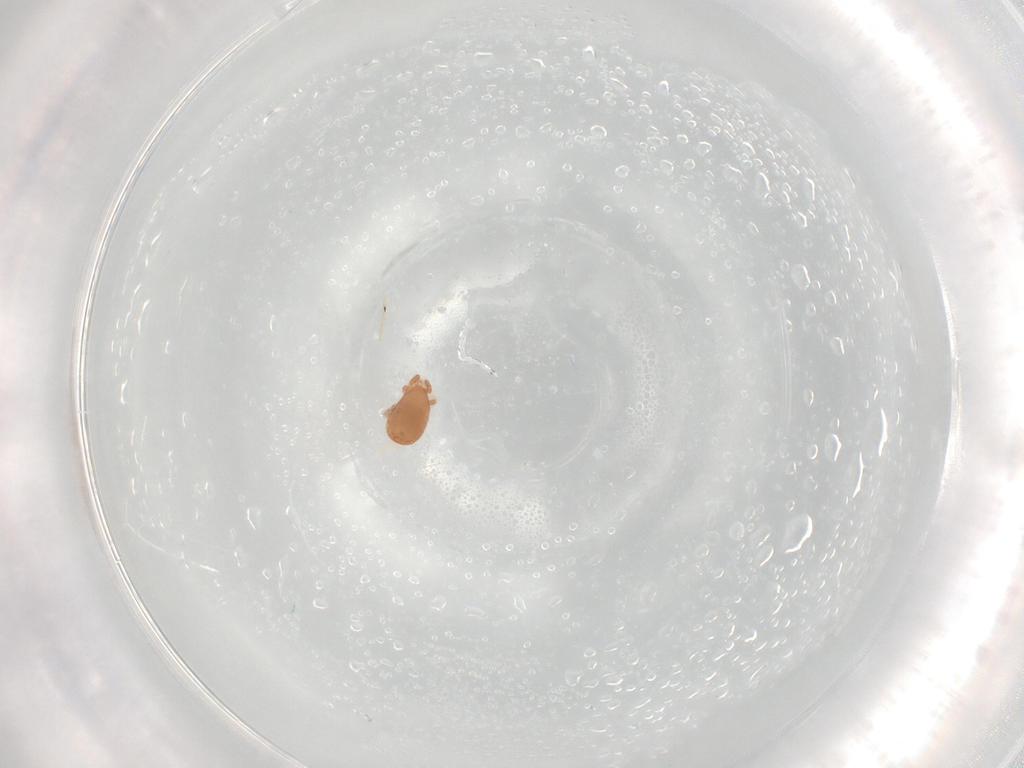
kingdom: Animalia
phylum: Arthropoda
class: Arachnida
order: Mesostigmata
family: Zerconidae
